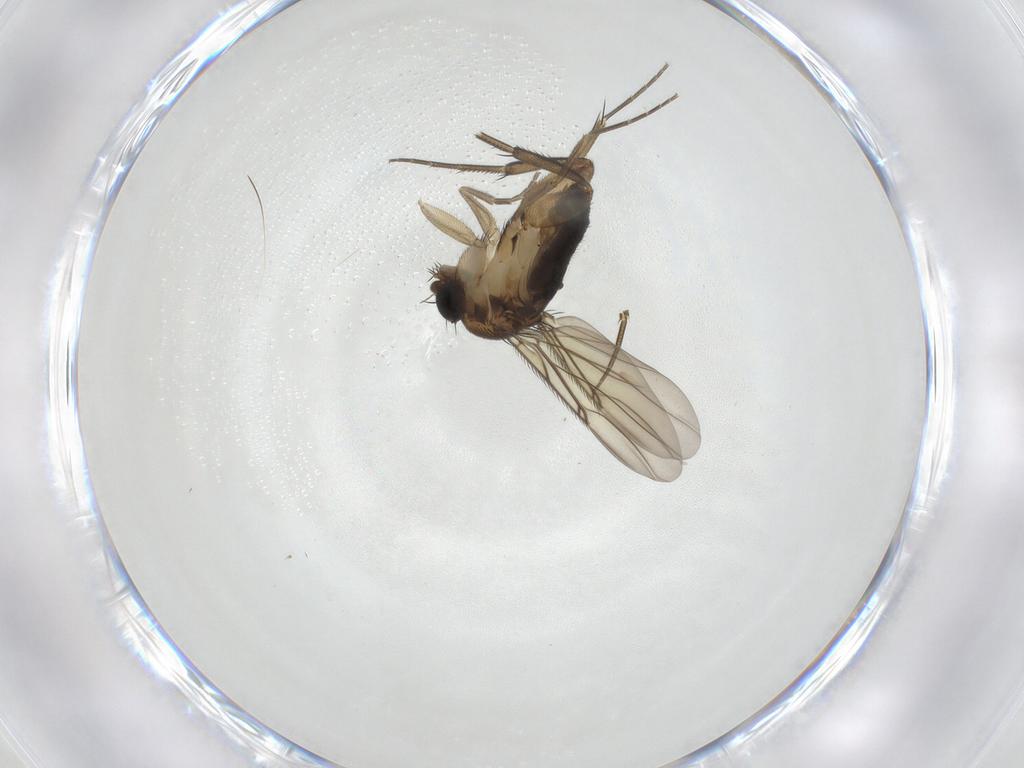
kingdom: Animalia
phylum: Arthropoda
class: Insecta
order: Diptera
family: Phoridae
